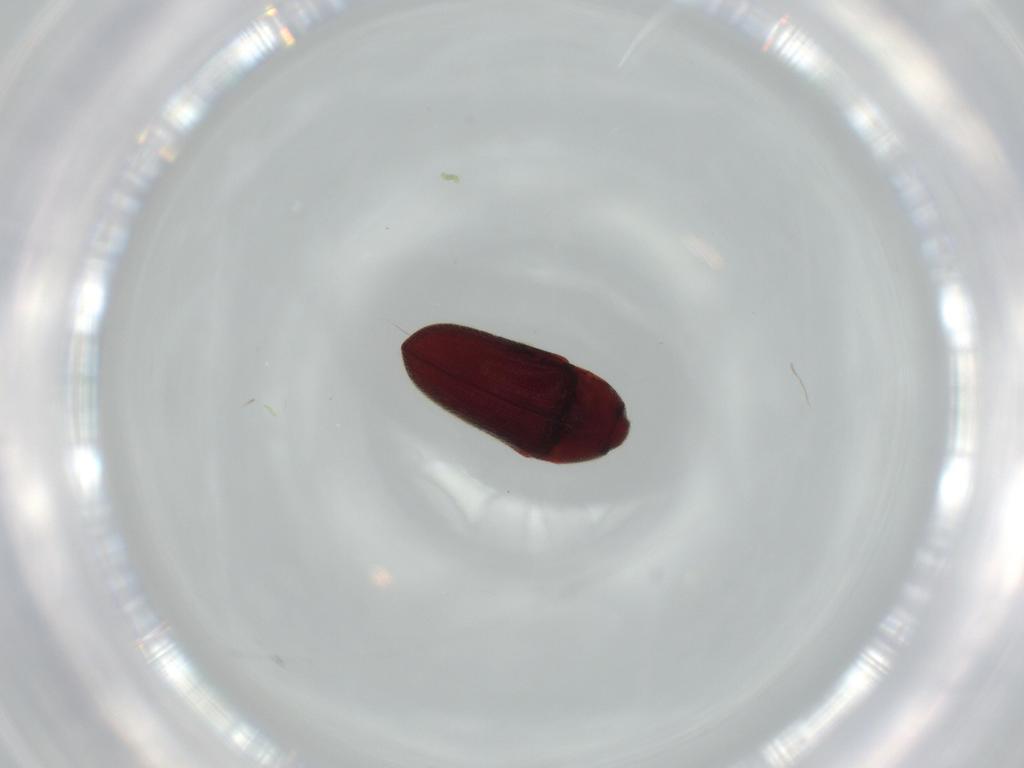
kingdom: Animalia
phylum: Arthropoda
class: Insecta
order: Coleoptera
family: Throscidae
